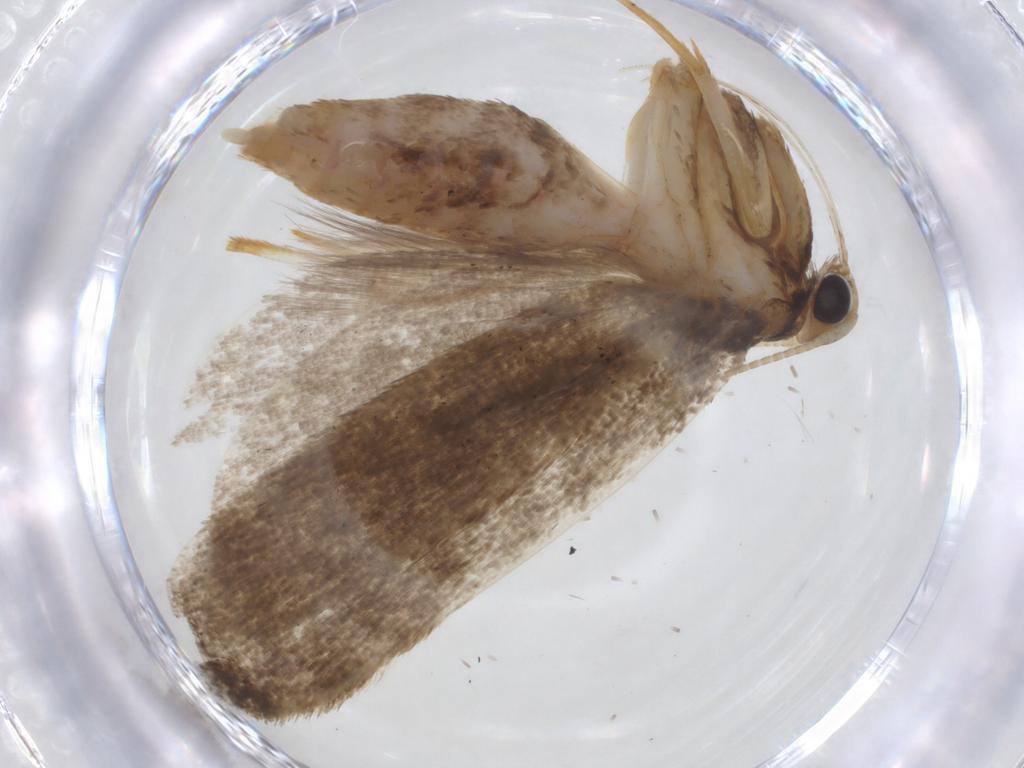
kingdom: Animalia
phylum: Arthropoda
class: Insecta
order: Lepidoptera
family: Lecithoceridae
